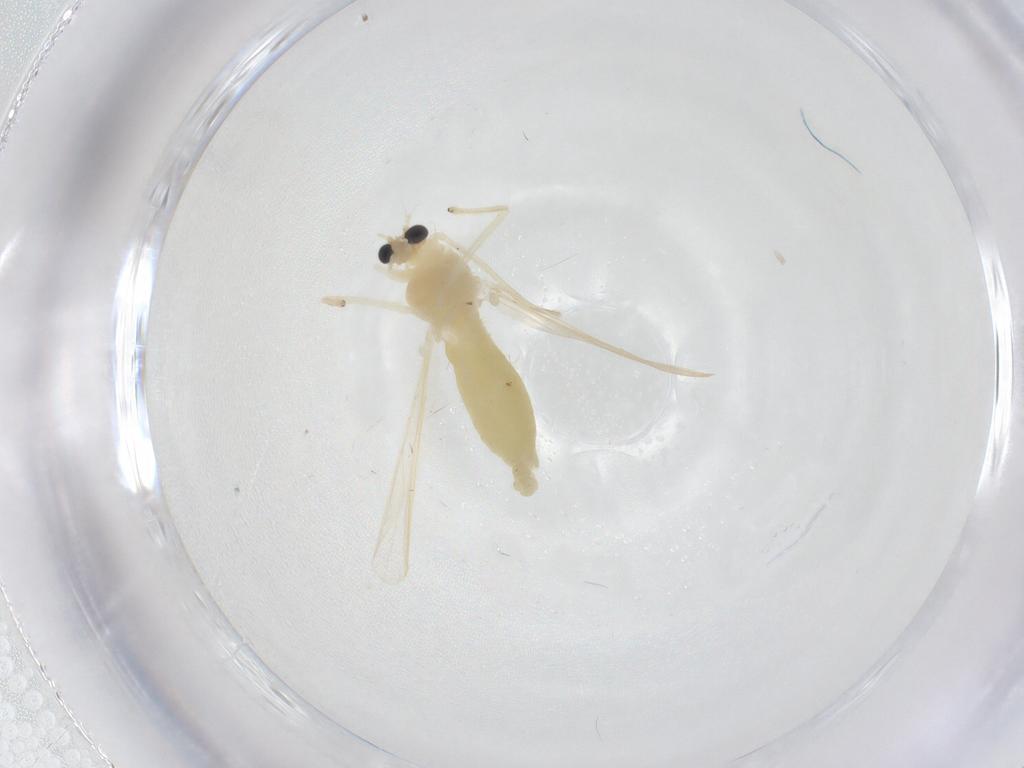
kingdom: Animalia
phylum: Arthropoda
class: Insecta
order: Diptera
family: Chironomidae
